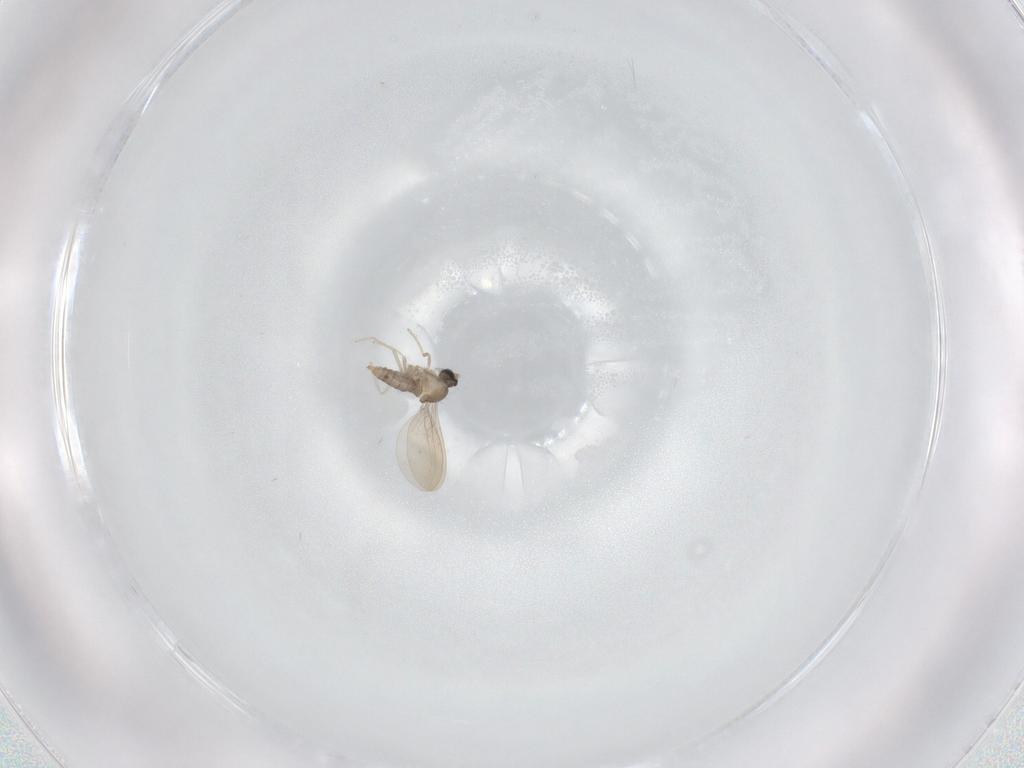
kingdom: Animalia
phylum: Arthropoda
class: Insecta
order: Diptera
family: Cecidomyiidae
